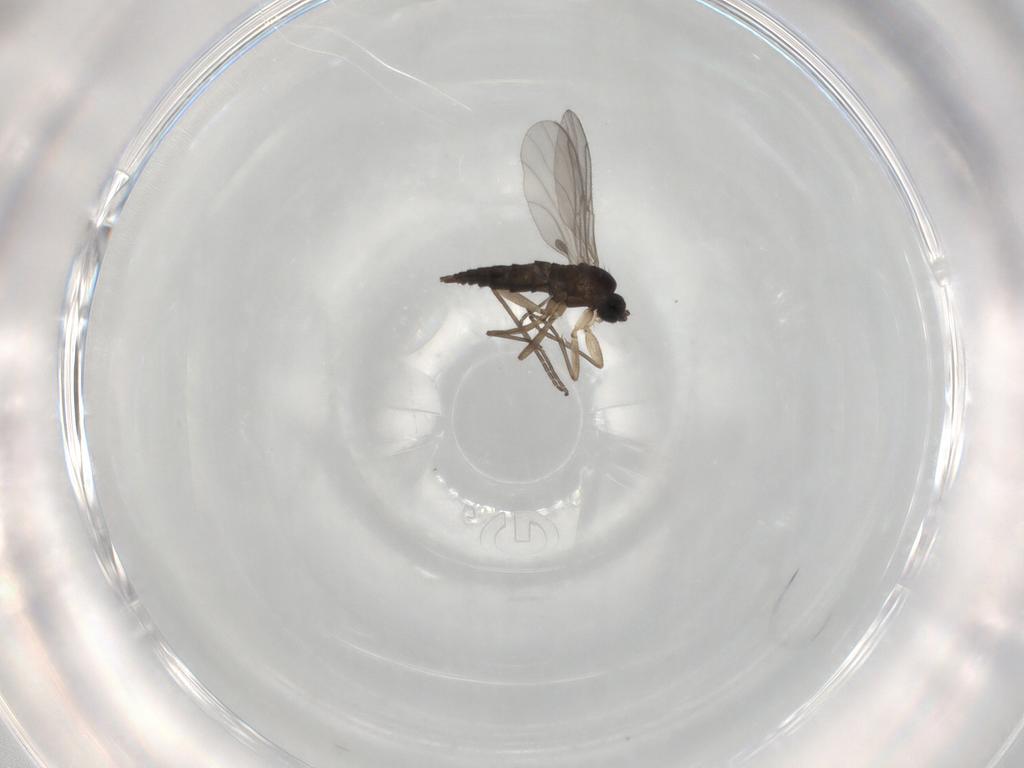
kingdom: Animalia
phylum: Arthropoda
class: Insecta
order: Diptera
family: Sciaridae
